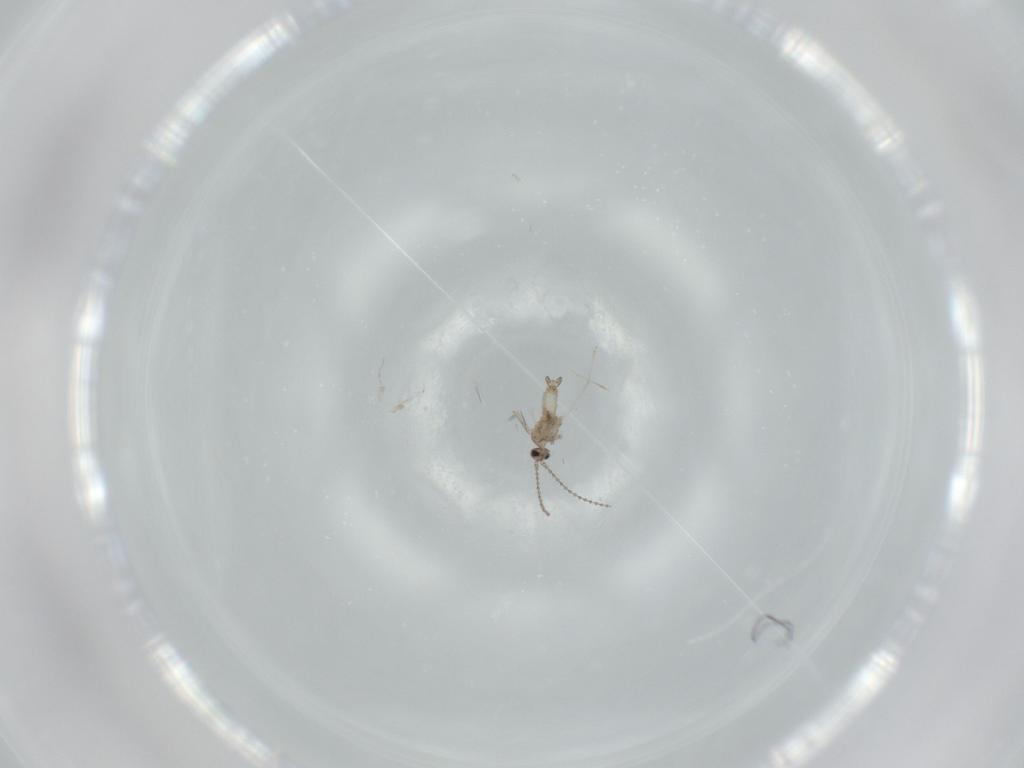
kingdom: Animalia
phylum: Arthropoda
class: Insecta
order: Diptera
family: Cecidomyiidae
